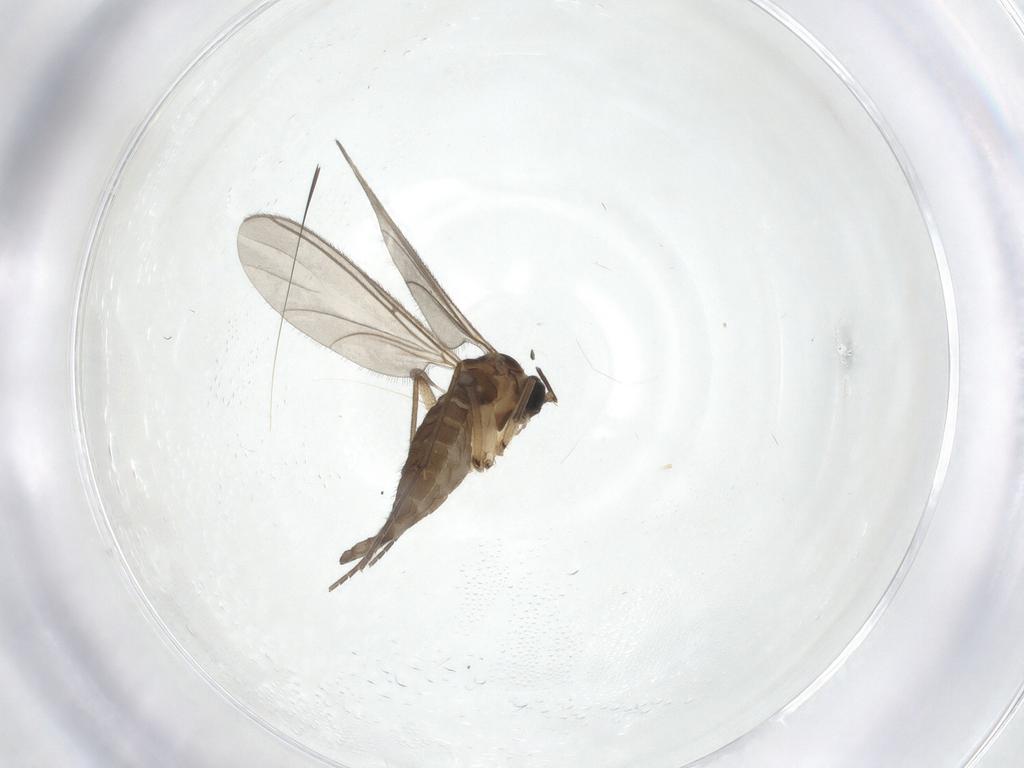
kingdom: Animalia
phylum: Arthropoda
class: Insecta
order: Diptera
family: Sciaridae
